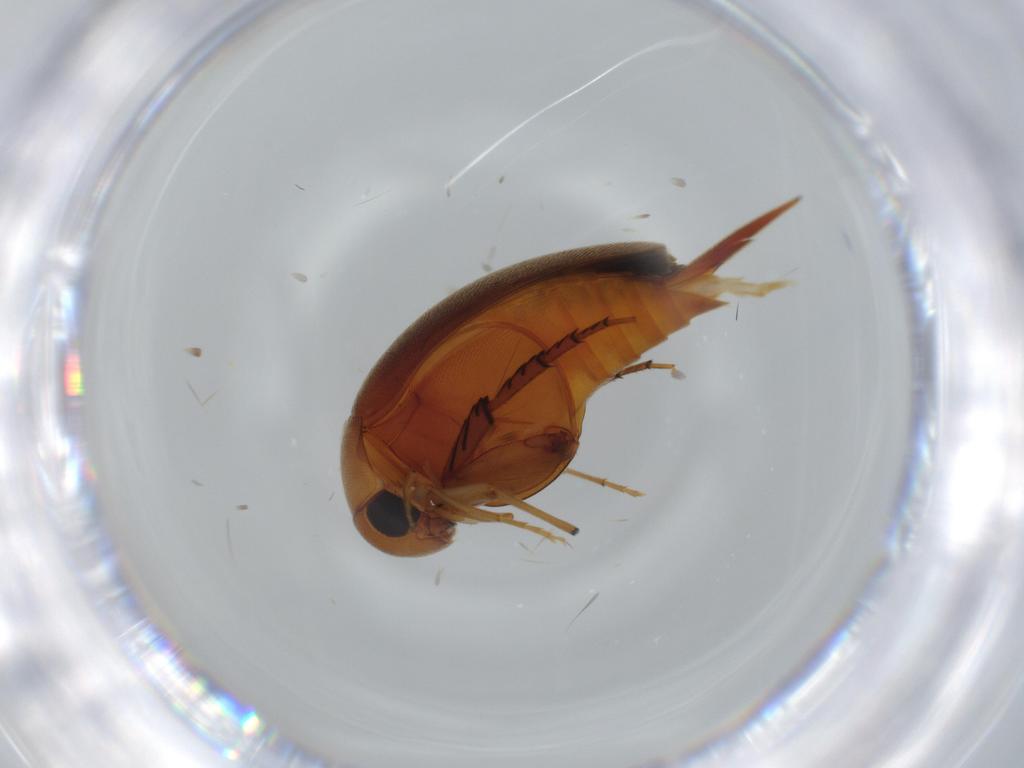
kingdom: Animalia
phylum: Arthropoda
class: Insecta
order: Coleoptera
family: Mordellidae
